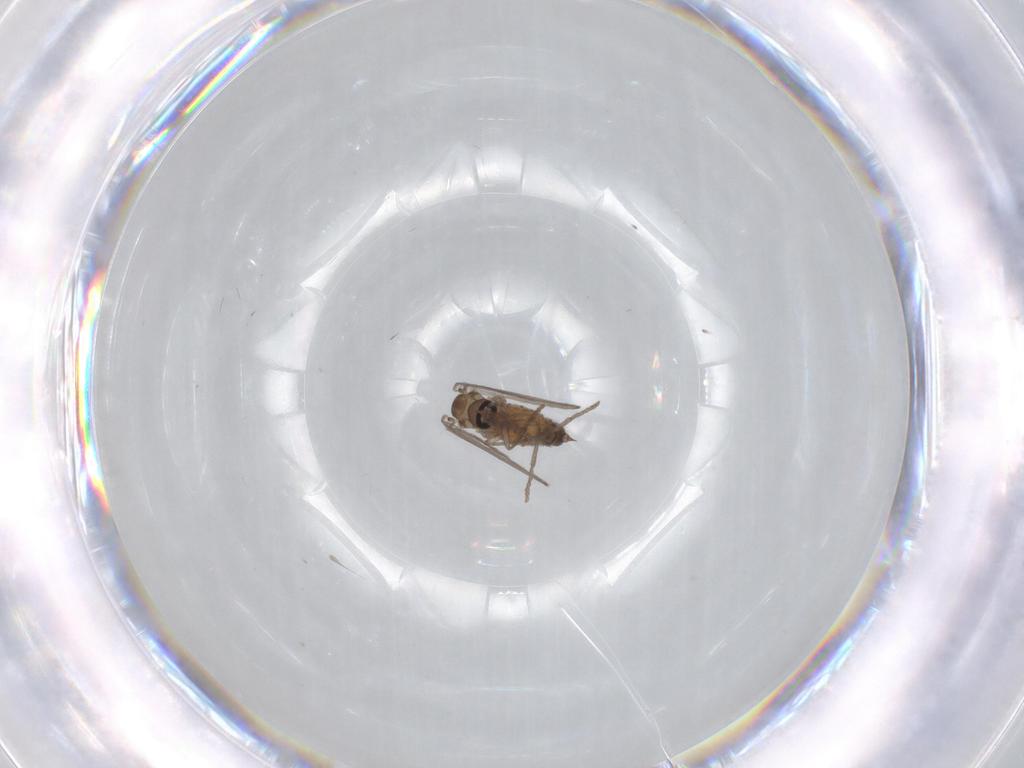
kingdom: Animalia
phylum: Arthropoda
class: Insecta
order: Diptera
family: Psychodidae
